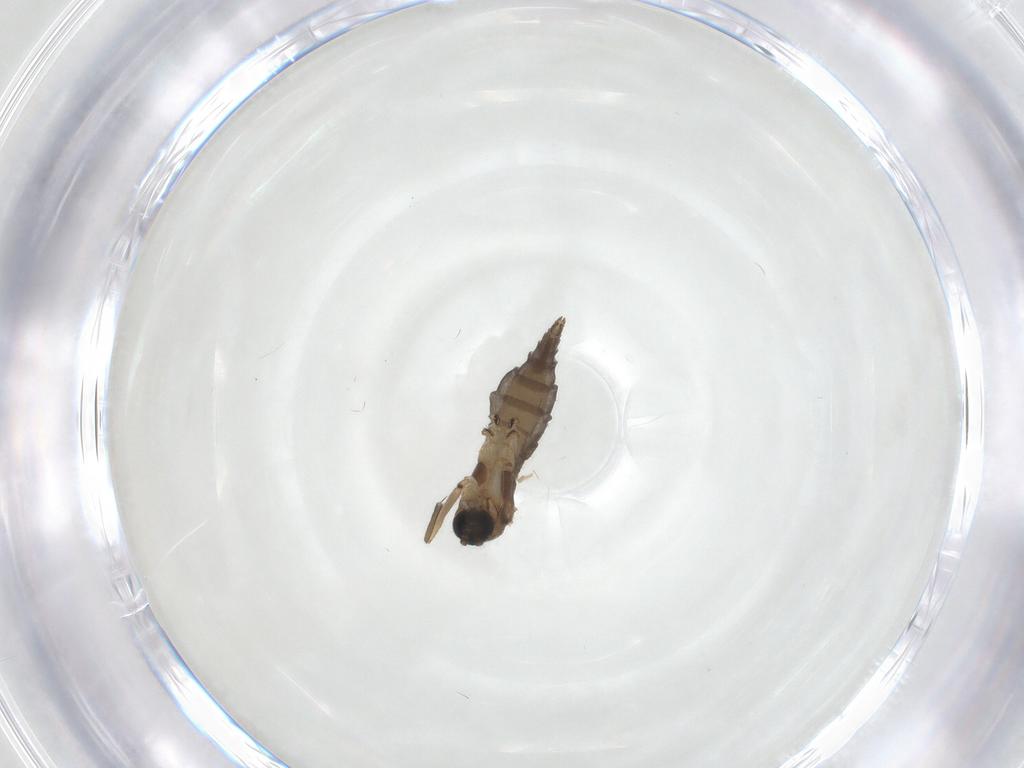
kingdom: Animalia
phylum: Arthropoda
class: Insecta
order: Diptera
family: Sciaridae
